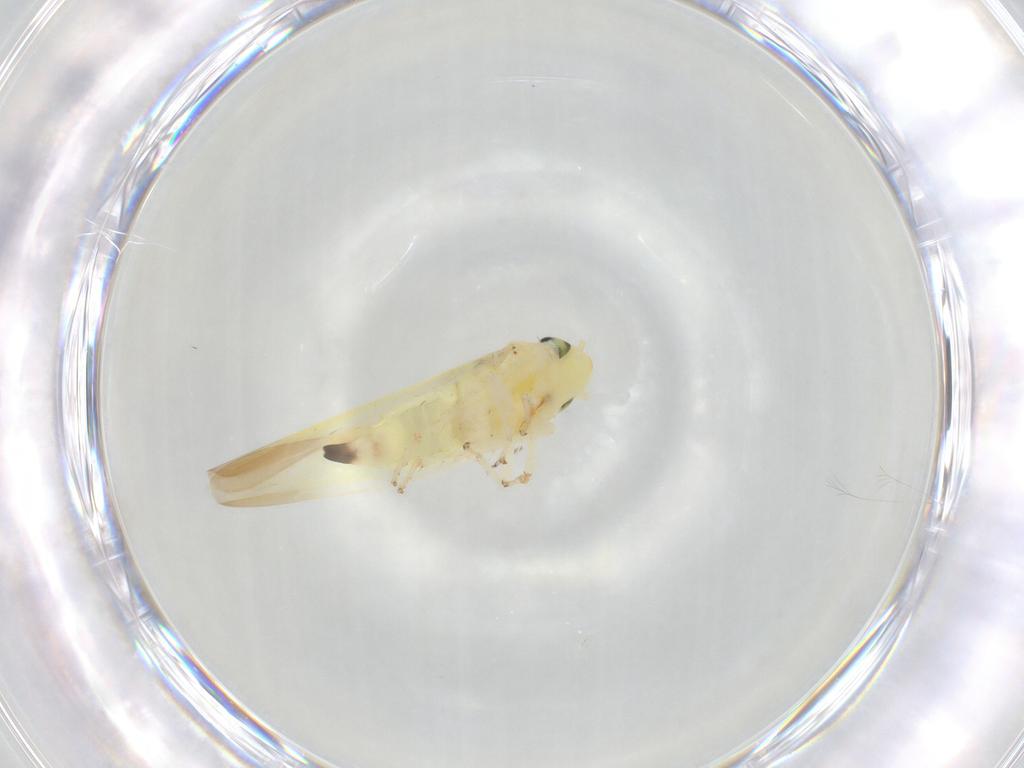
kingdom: Animalia
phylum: Arthropoda
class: Insecta
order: Hemiptera
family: Cicadellidae
